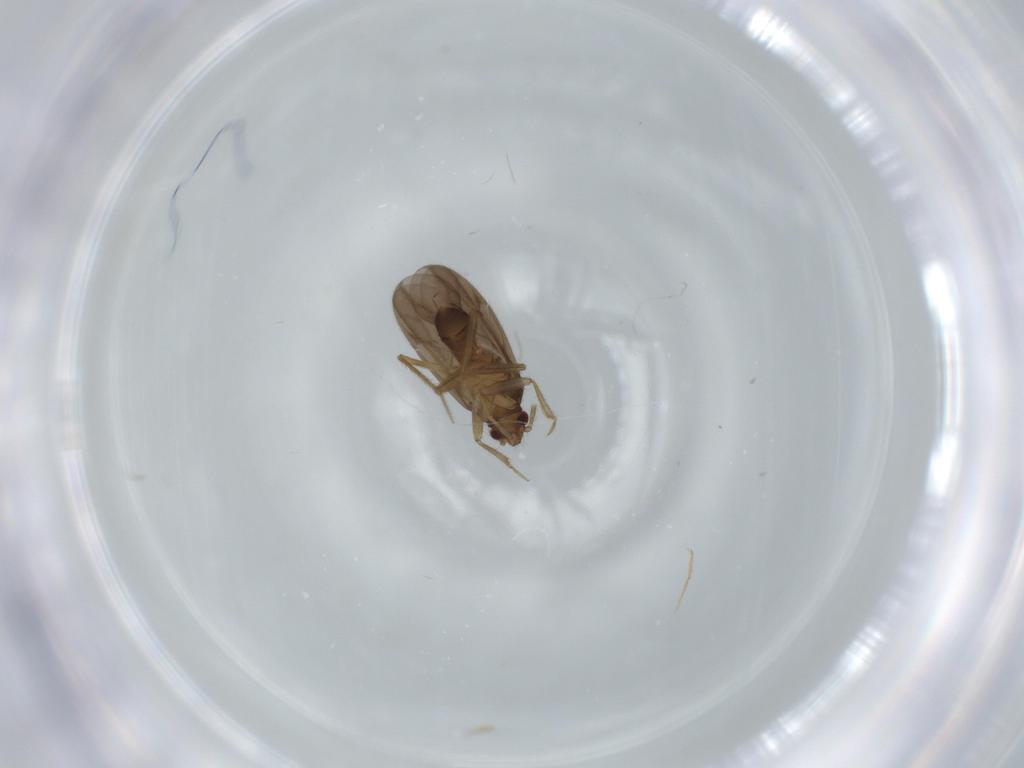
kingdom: Animalia
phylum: Arthropoda
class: Insecta
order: Hemiptera
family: Ceratocombidae
